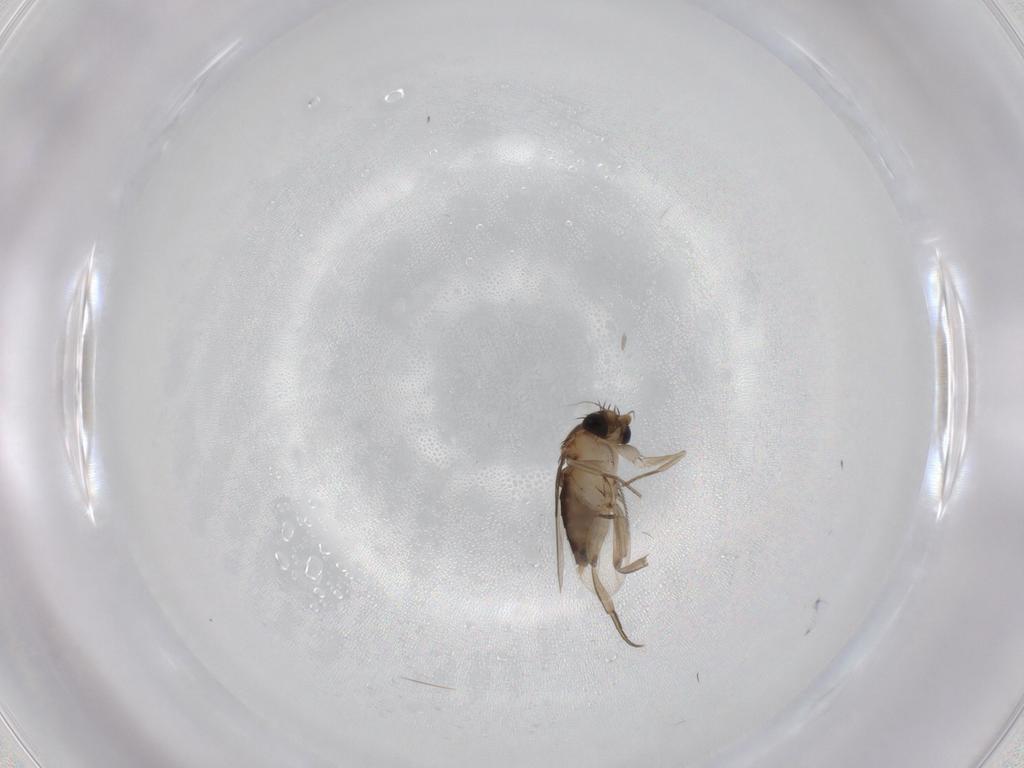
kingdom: Animalia
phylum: Arthropoda
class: Insecta
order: Diptera
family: Phoridae
